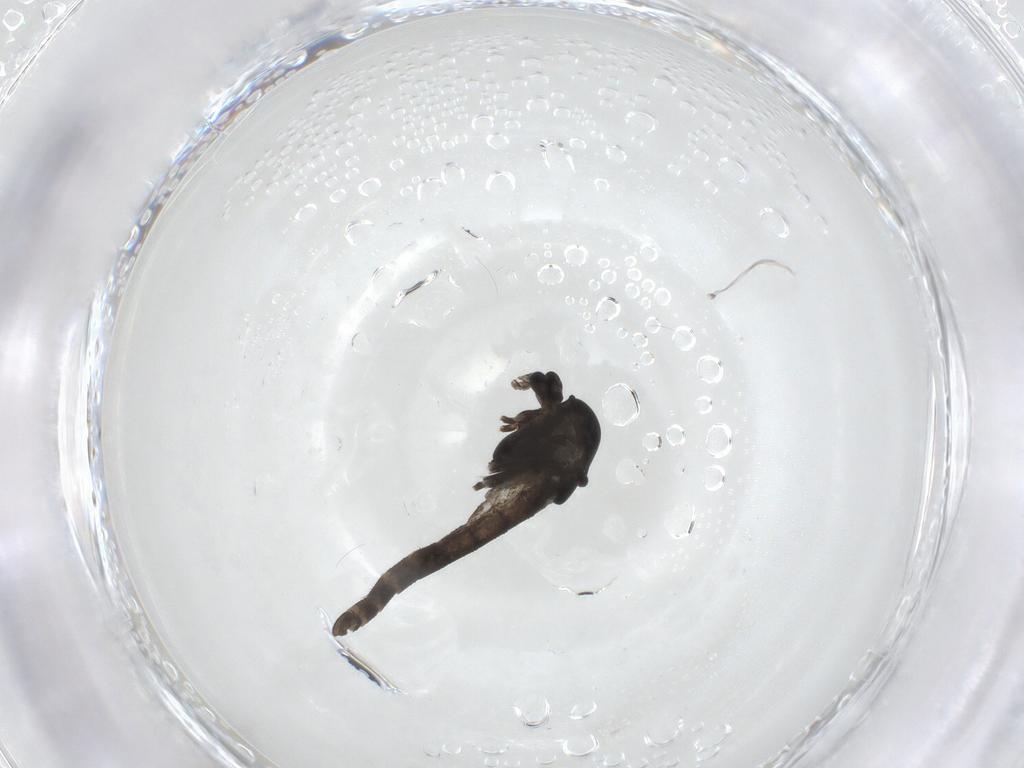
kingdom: Animalia
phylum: Arthropoda
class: Insecta
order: Diptera
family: Chironomidae
